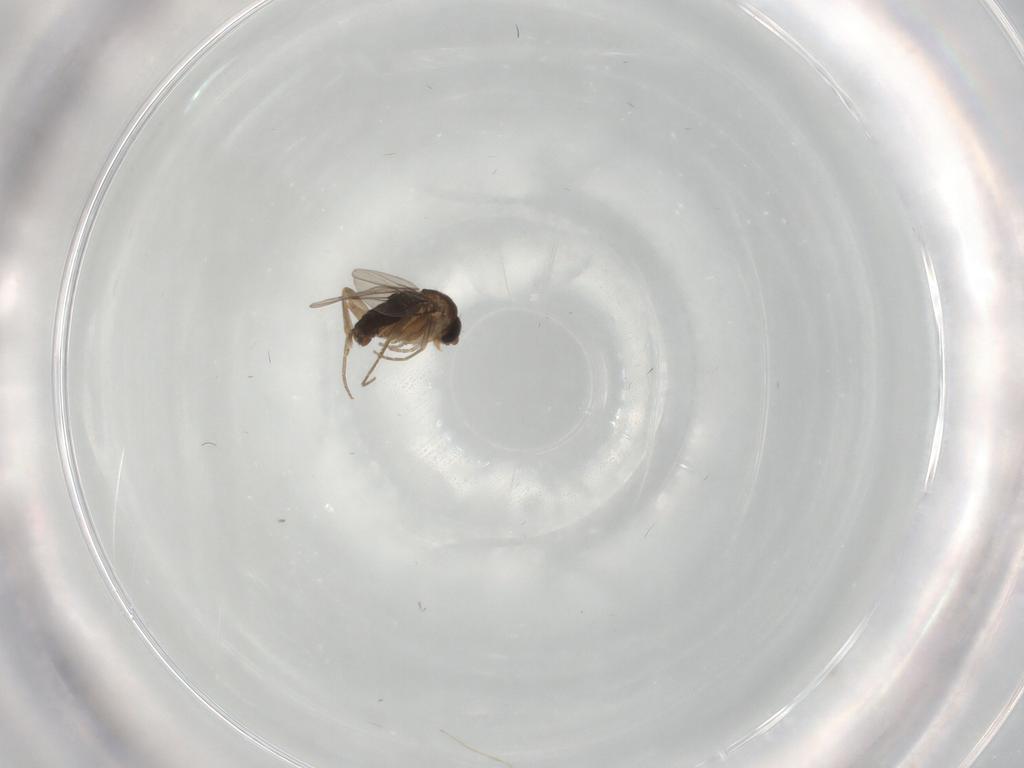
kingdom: Animalia
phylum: Arthropoda
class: Insecta
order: Diptera
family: Phoridae
